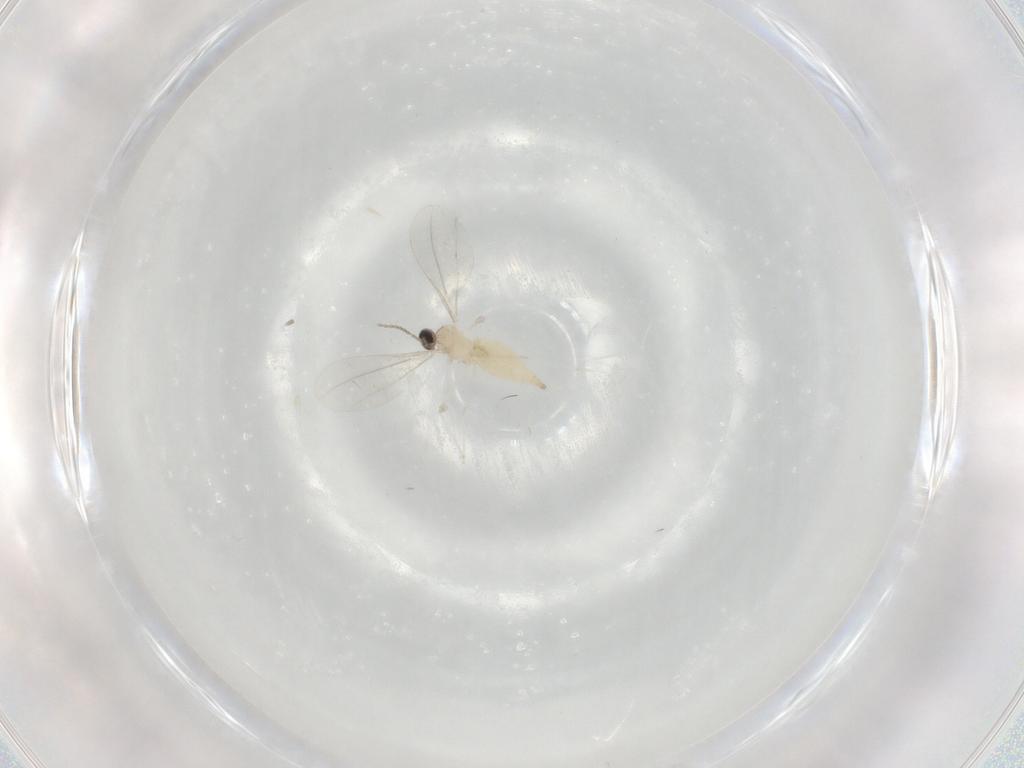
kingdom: Animalia
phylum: Arthropoda
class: Insecta
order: Diptera
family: Cecidomyiidae
